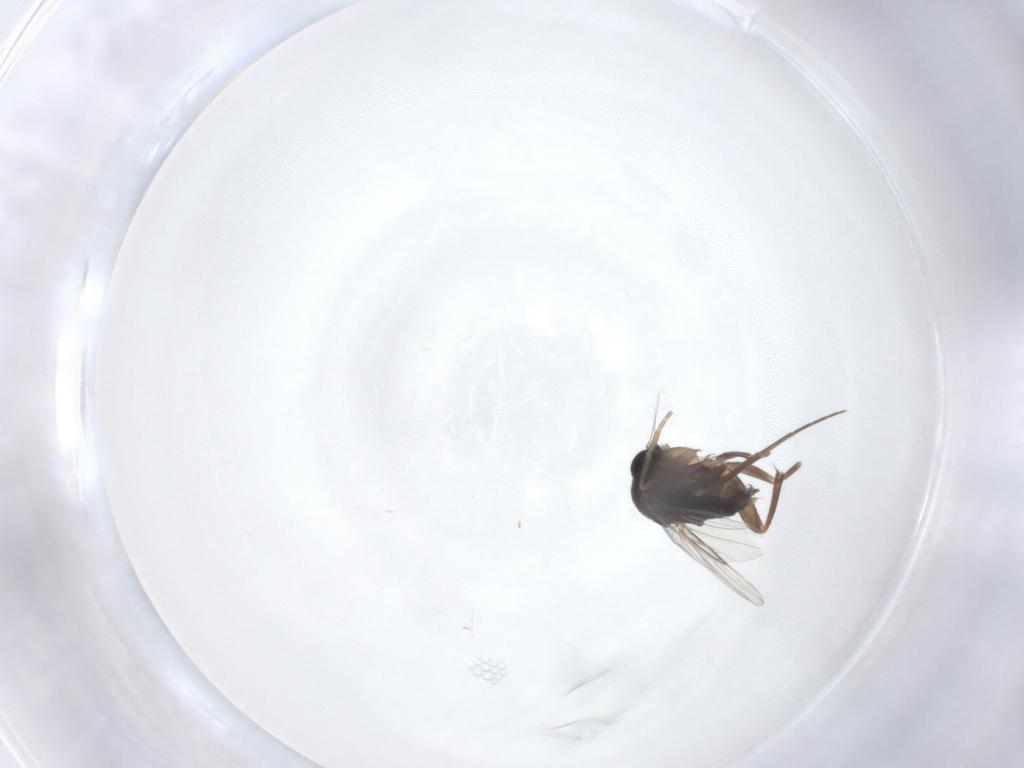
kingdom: Animalia
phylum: Arthropoda
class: Insecta
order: Diptera
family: Phoridae
